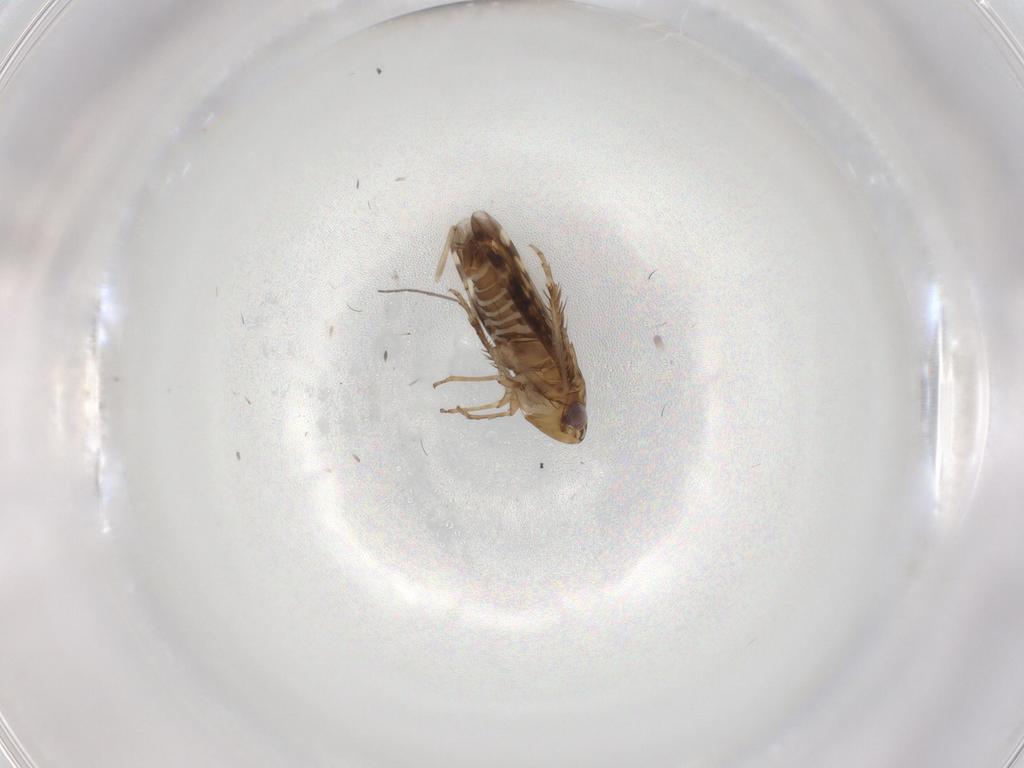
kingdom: Animalia
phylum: Arthropoda
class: Insecta
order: Hemiptera
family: Cicadellidae
